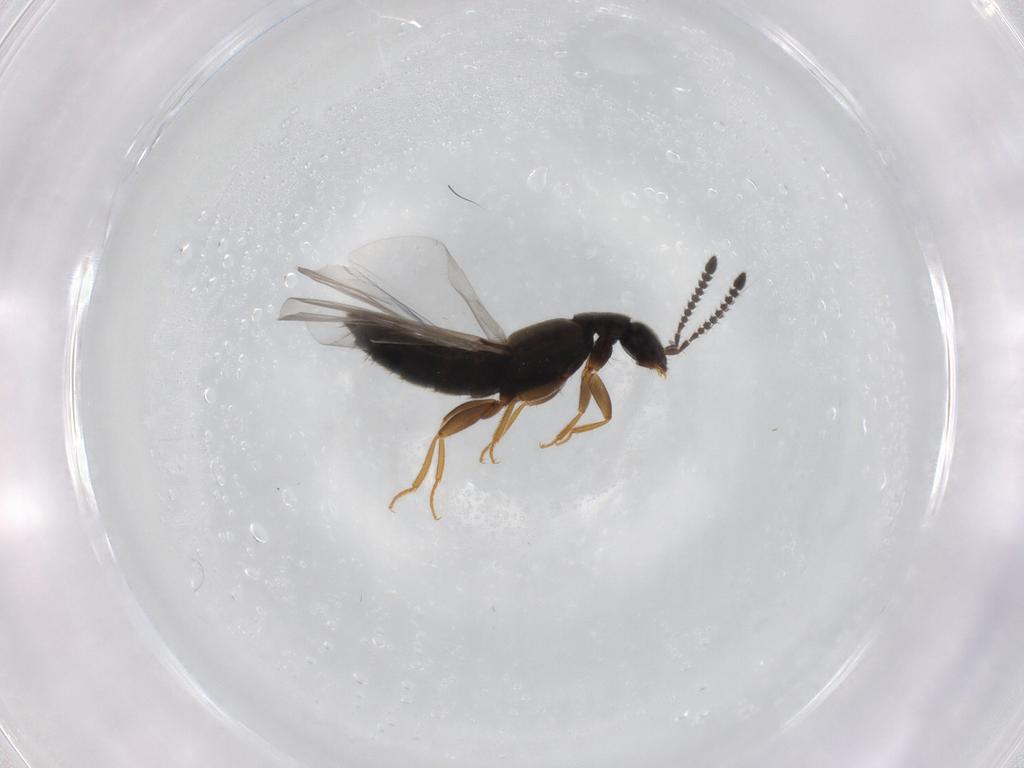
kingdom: Animalia
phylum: Arthropoda
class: Insecta
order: Coleoptera
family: Staphylinidae
